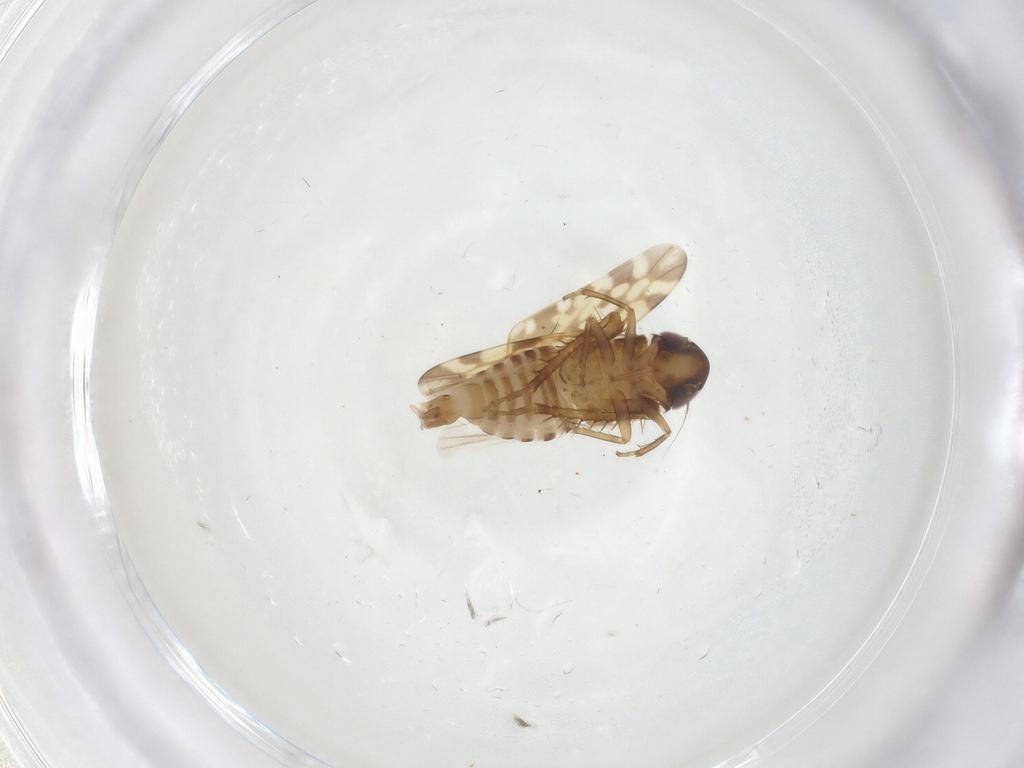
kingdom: Animalia
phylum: Arthropoda
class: Insecta
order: Hemiptera
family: Cicadellidae
